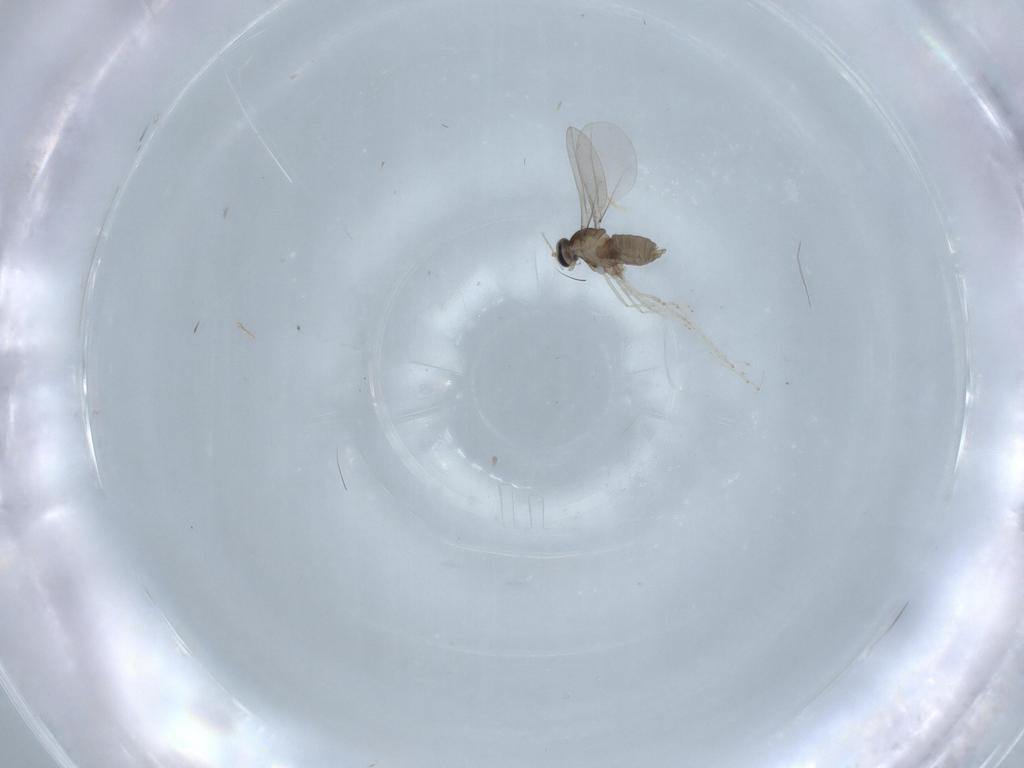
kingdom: Animalia
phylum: Arthropoda
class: Insecta
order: Diptera
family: Ceratopogonidae
